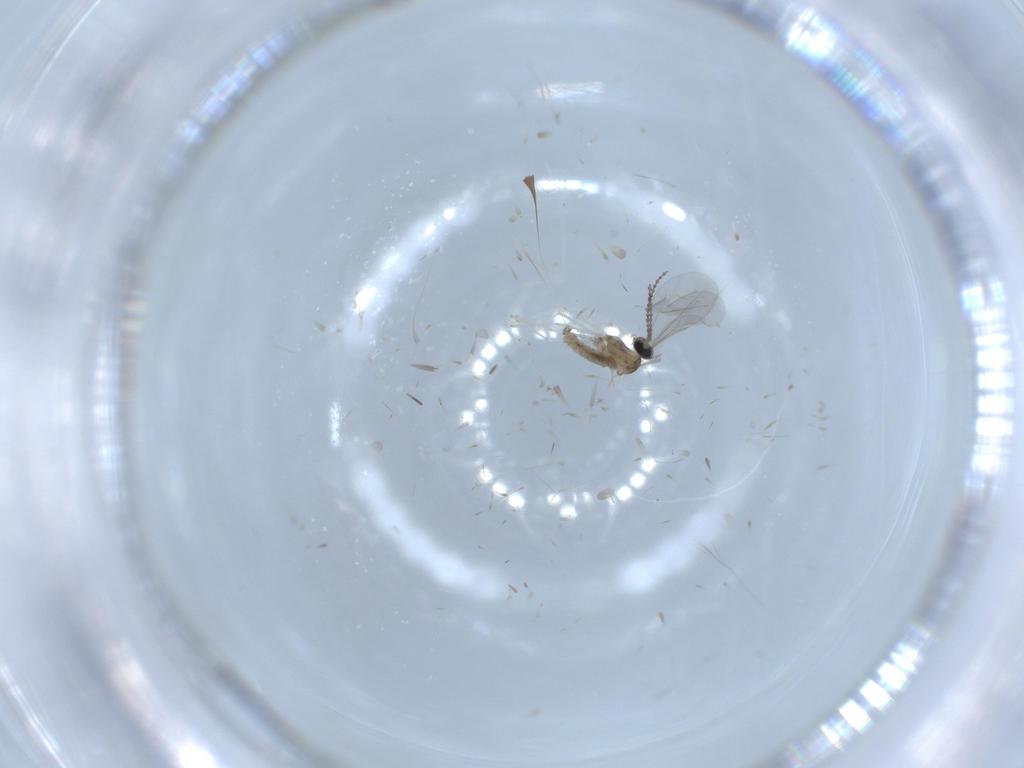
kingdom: Animalia
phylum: Arthropoda
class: Insecta
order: Diptera
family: Cecidomyiidae
